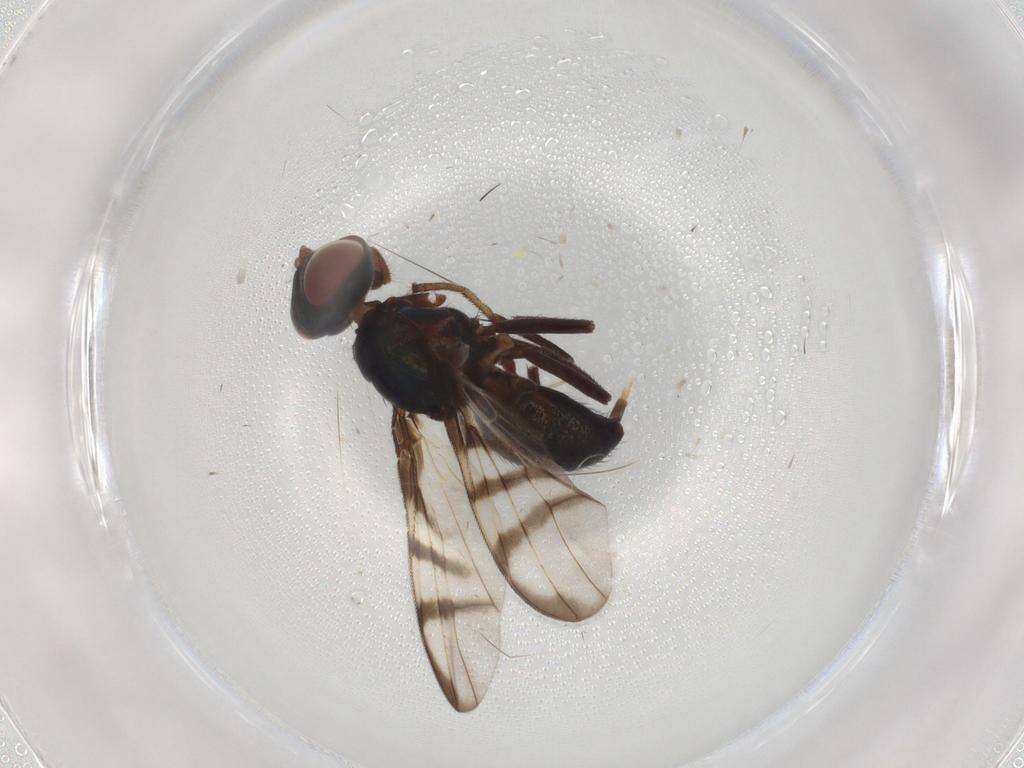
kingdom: Animalia
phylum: Arthropoda
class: Insecta
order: Diptera
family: Platystomatidae
